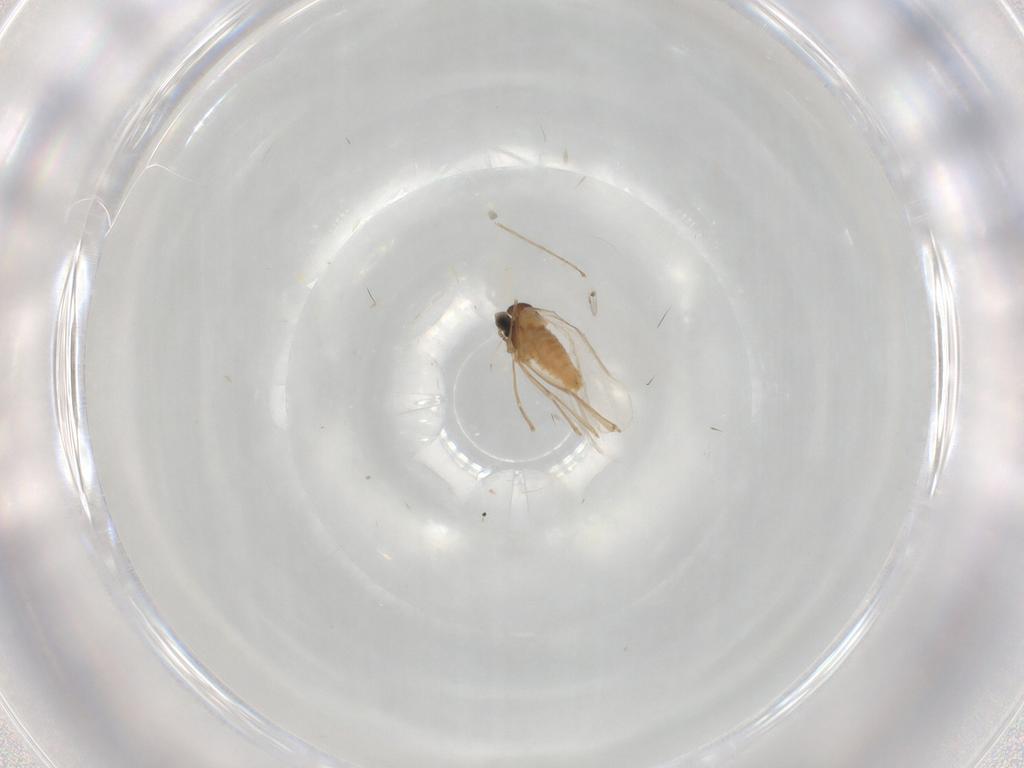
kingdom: Animalia
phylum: Arthropoda
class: Insecta
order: Diptera
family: Cecidomyiidae
